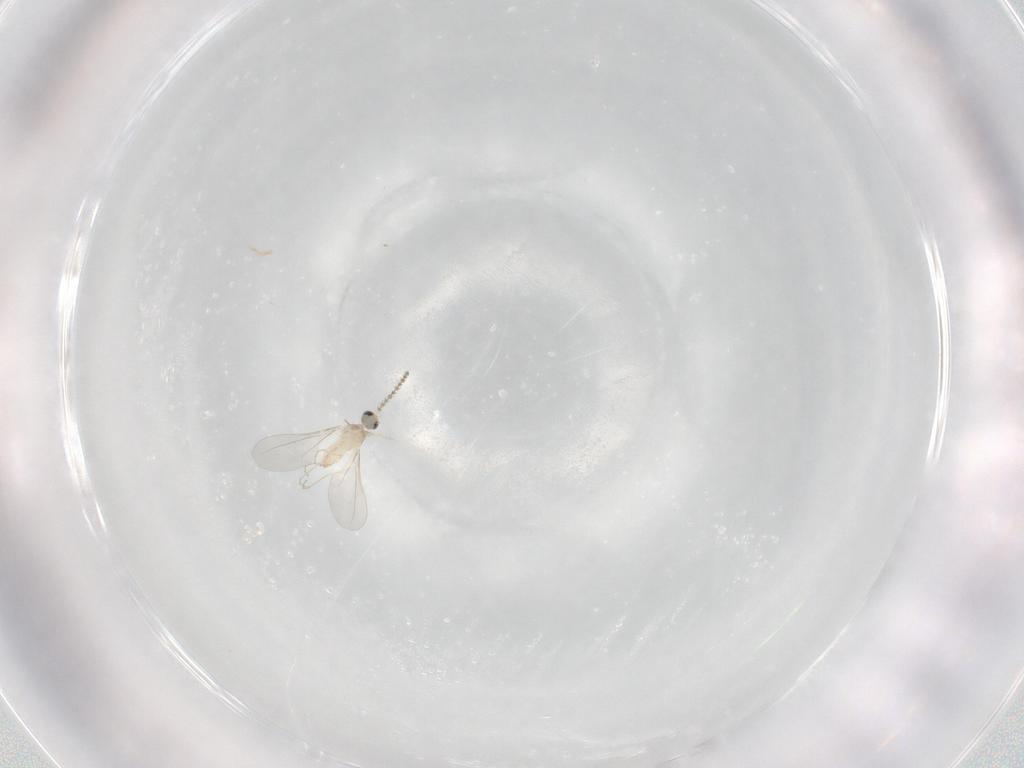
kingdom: Animalia
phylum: Arthropoda
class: Insecta
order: Diptera
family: Cecidomyiidae
